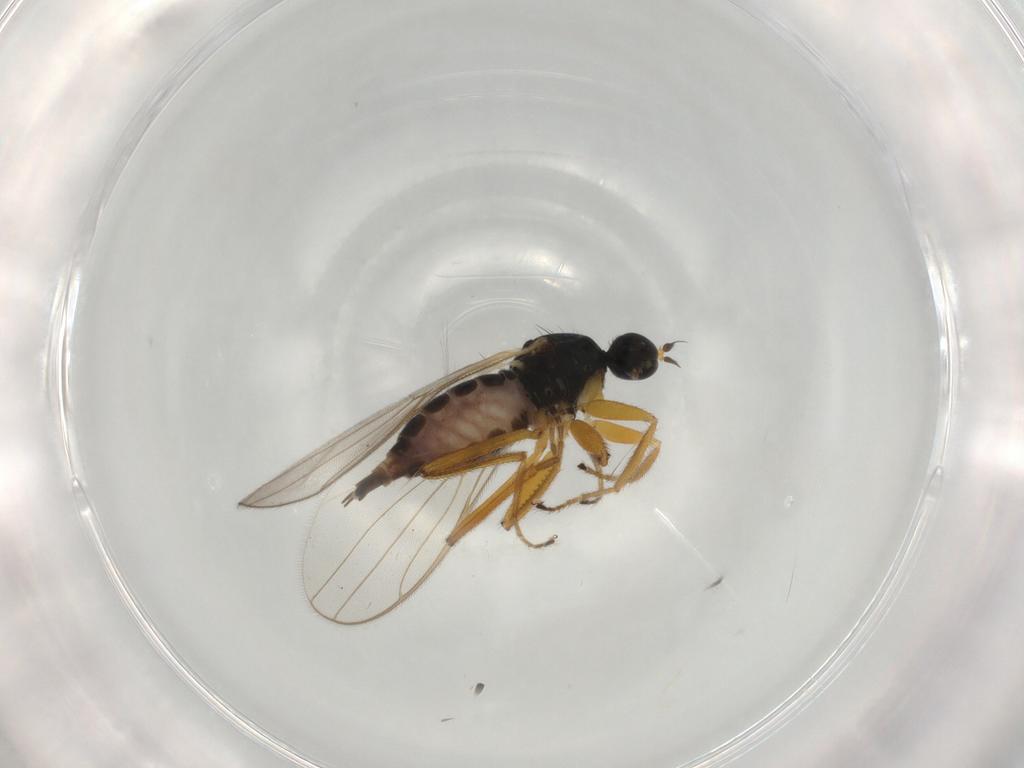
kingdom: Animalia
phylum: Arthropoda
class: Insecta
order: Diptera
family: Hybotidae
